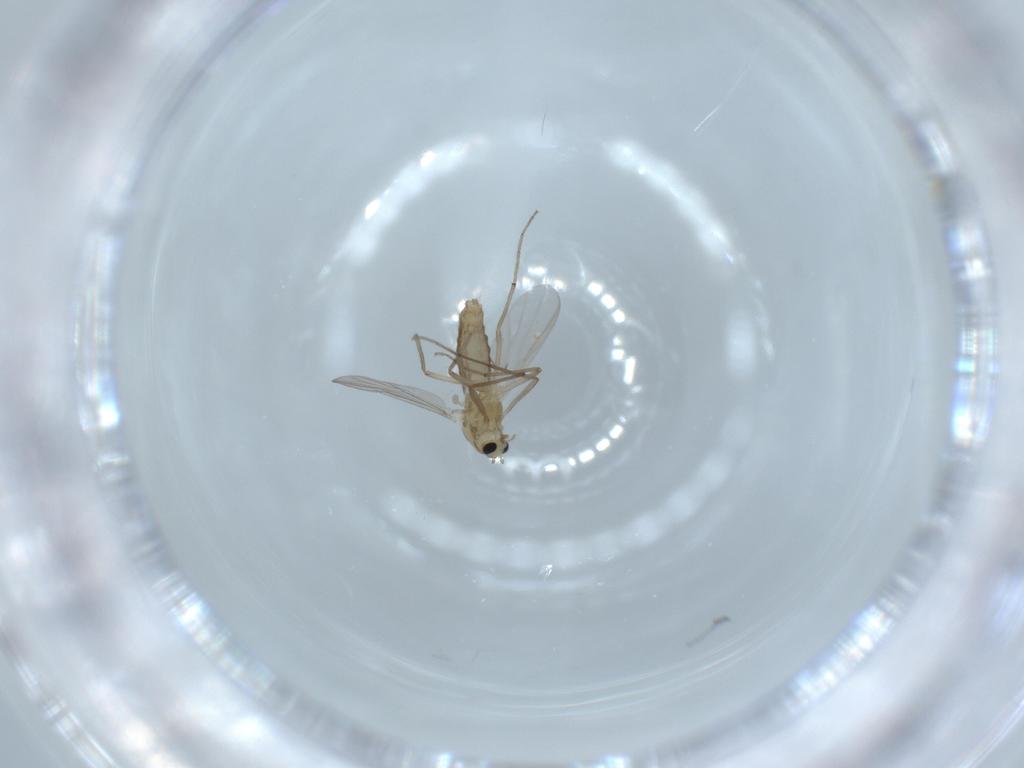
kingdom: Animalia
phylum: Arthropoda
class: Insecta
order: Diptera
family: Chironomidae
